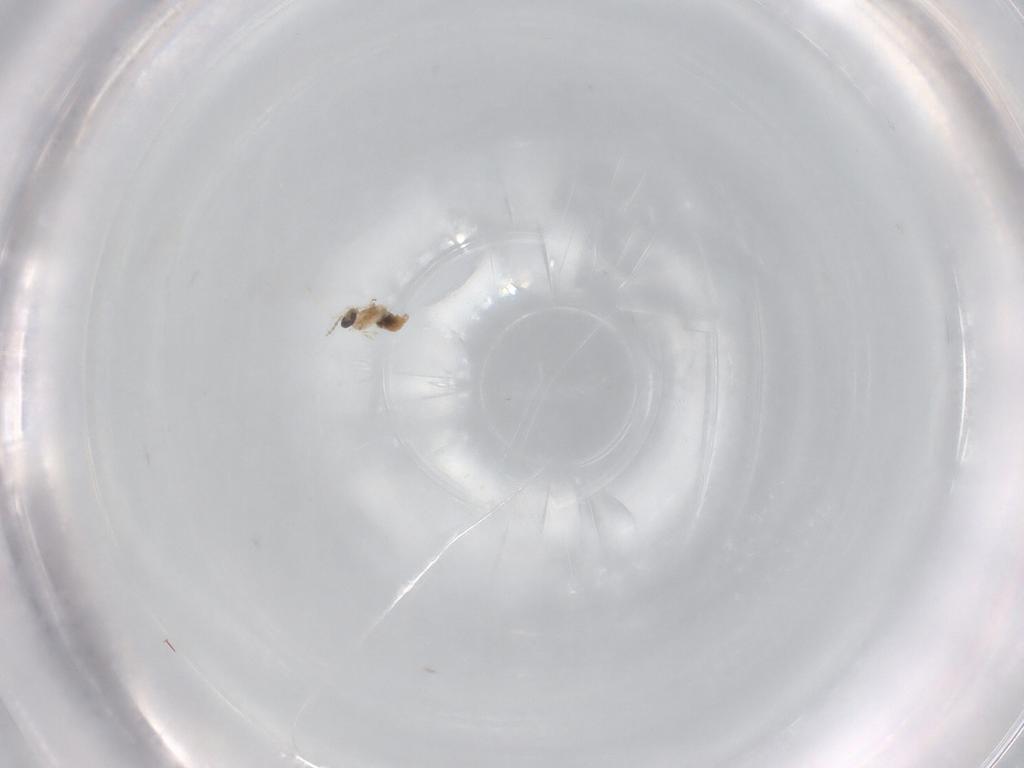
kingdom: Animalia
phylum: Arthropoda
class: Insecta
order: Diptera
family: Cecidomyiidae
